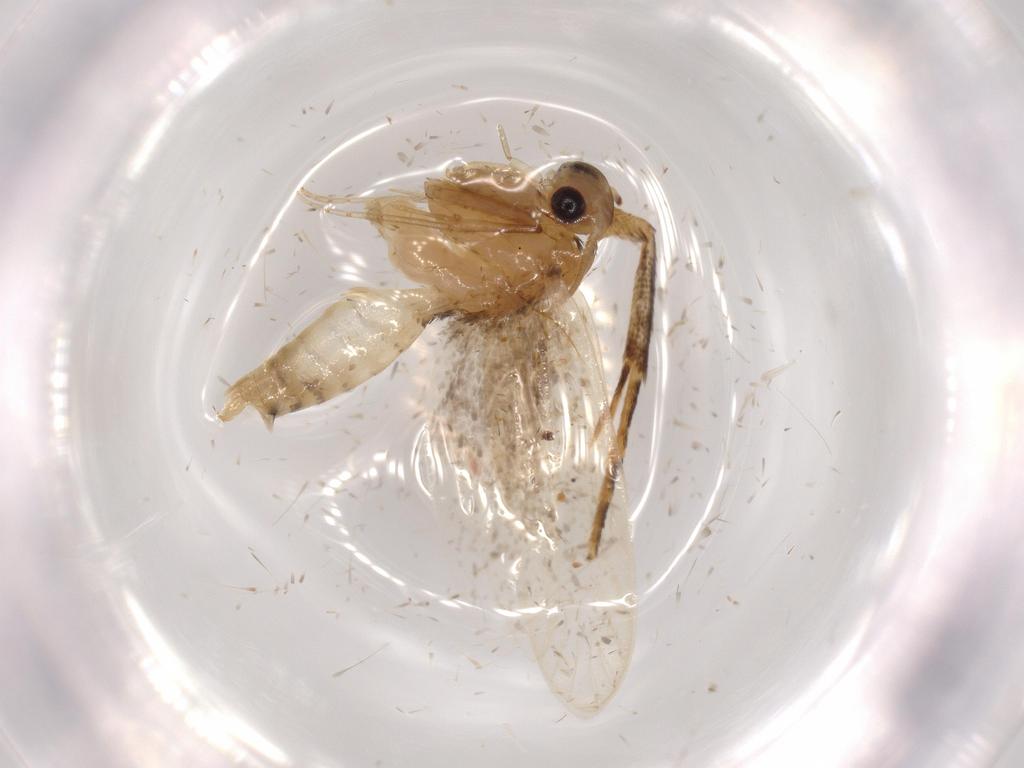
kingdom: Animalia
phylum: Arthropoda
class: Insecta
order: Lepidoptera
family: Tineidae
